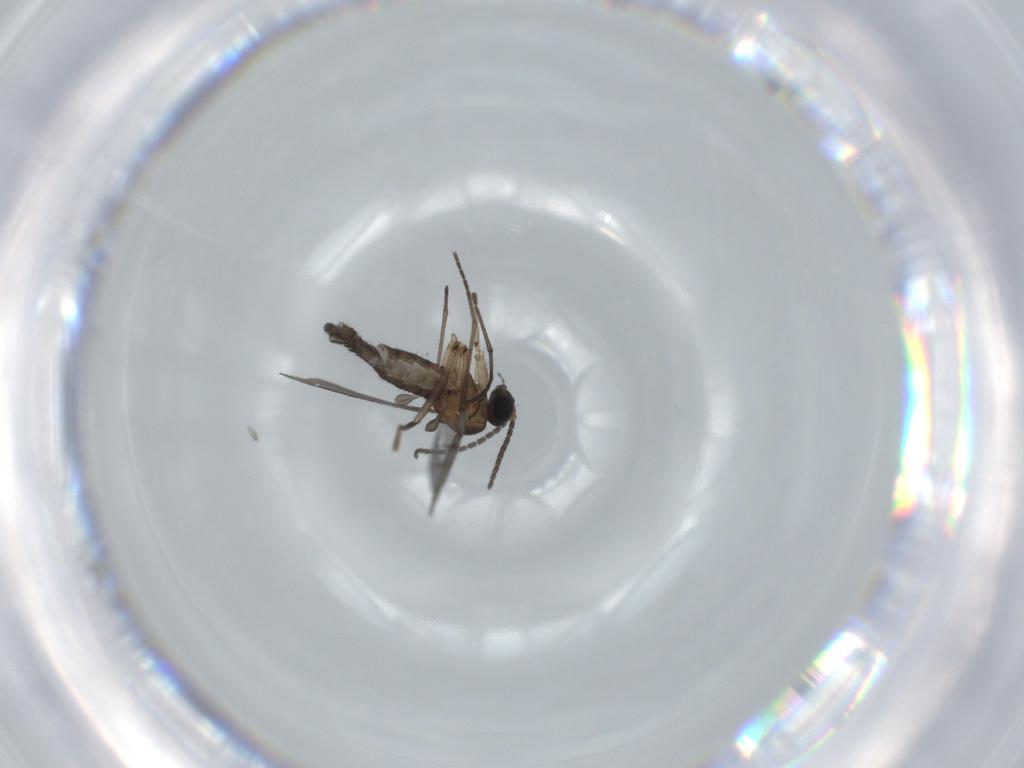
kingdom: Animalia
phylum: Arthropoda
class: Insecta
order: Diptera
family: Sciaridae
